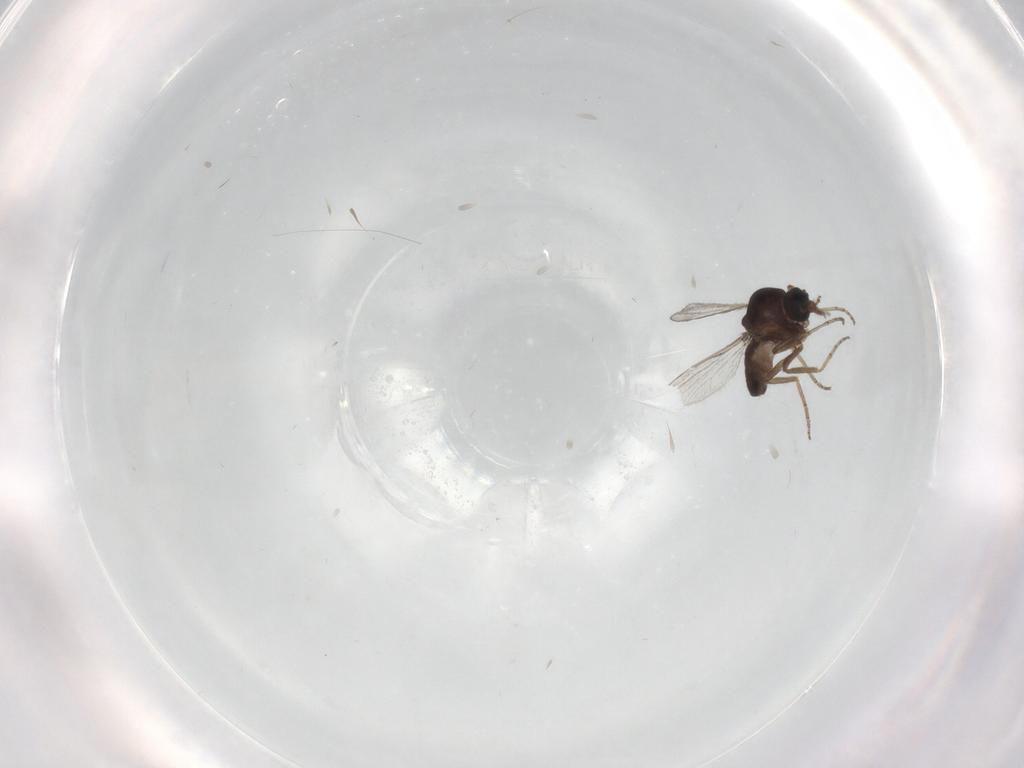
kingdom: Animalia
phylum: Arthropoda
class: Insecta
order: Diptera
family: Ceratopogonidae
